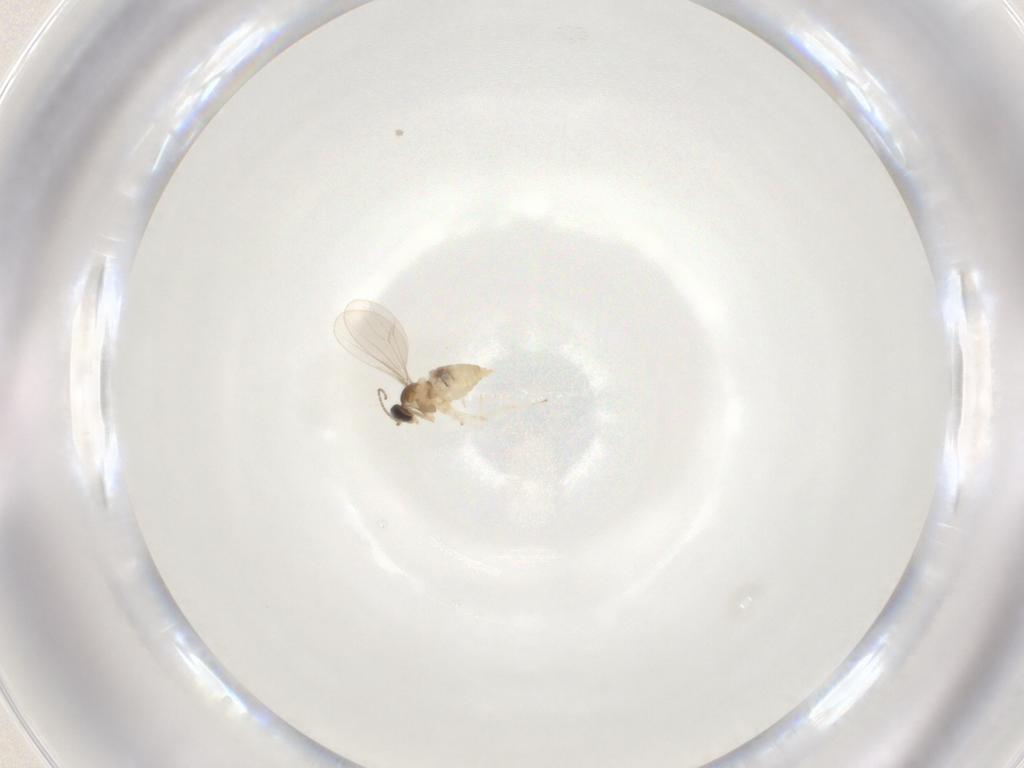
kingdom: Animalia
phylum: Arthropoda
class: Insecta
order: Diptera
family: Cecidomyiidae
